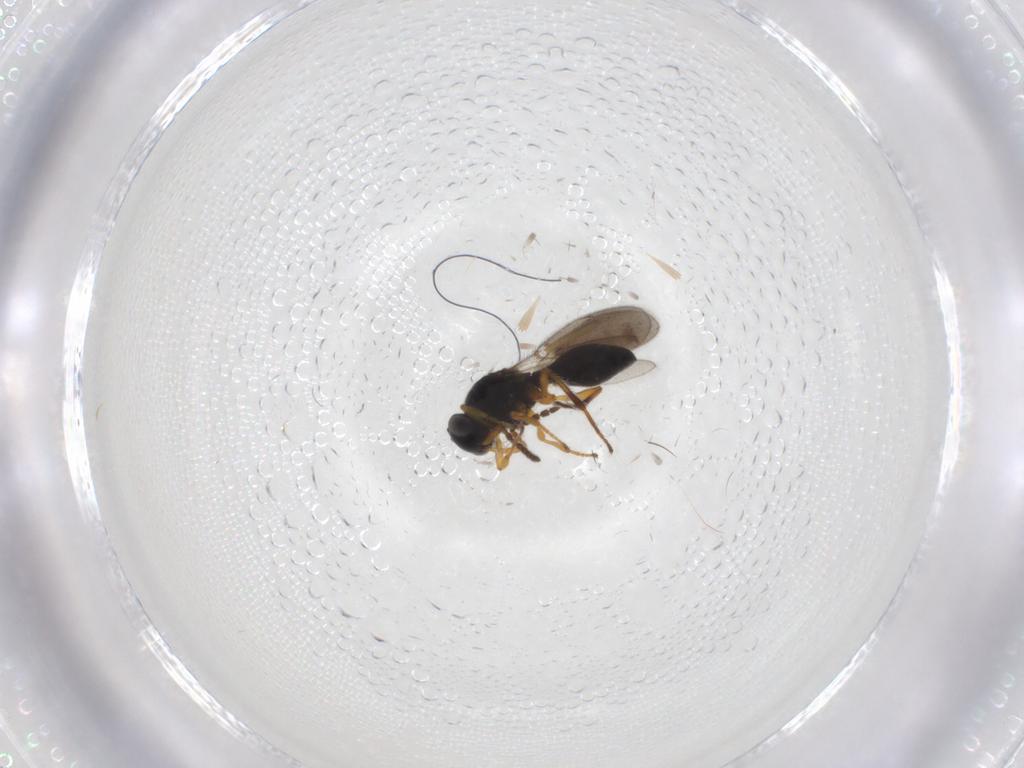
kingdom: Animalia
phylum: Arthropoda
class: Insecta
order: Hymenoptera
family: Platygastridae
